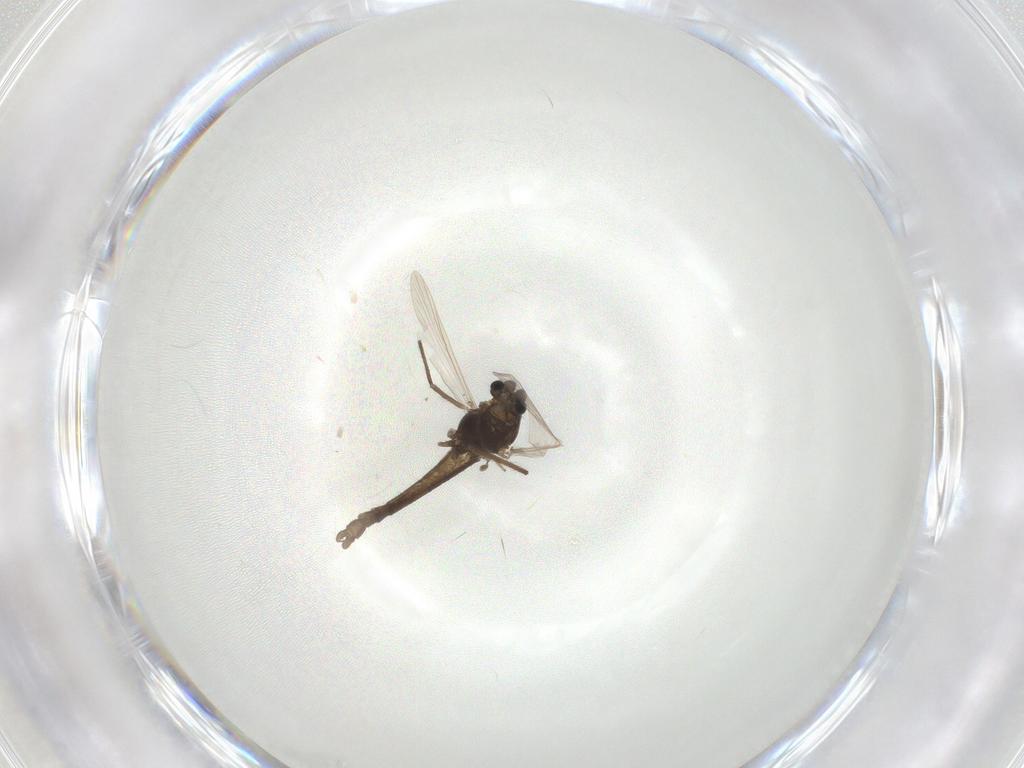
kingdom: Animalia
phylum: Arthropoda
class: Insecta
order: Diptera
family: Chironomidae
